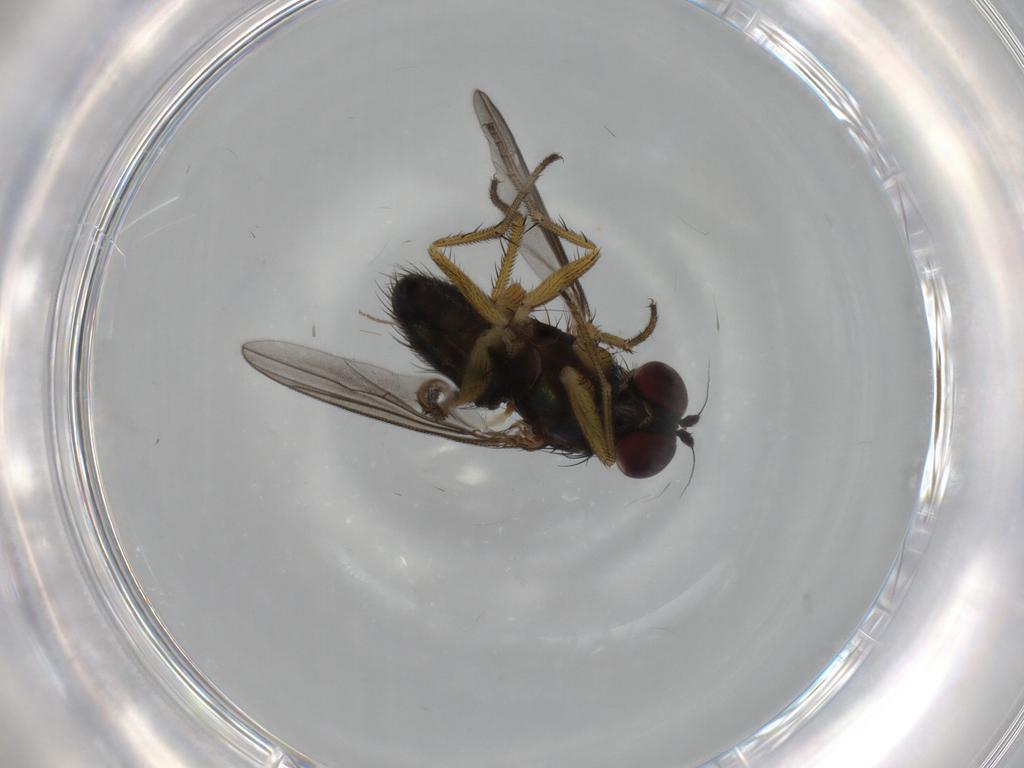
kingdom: Animalia
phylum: Arthropoda
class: Insecta
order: Diptera
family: Dolichopodidae
